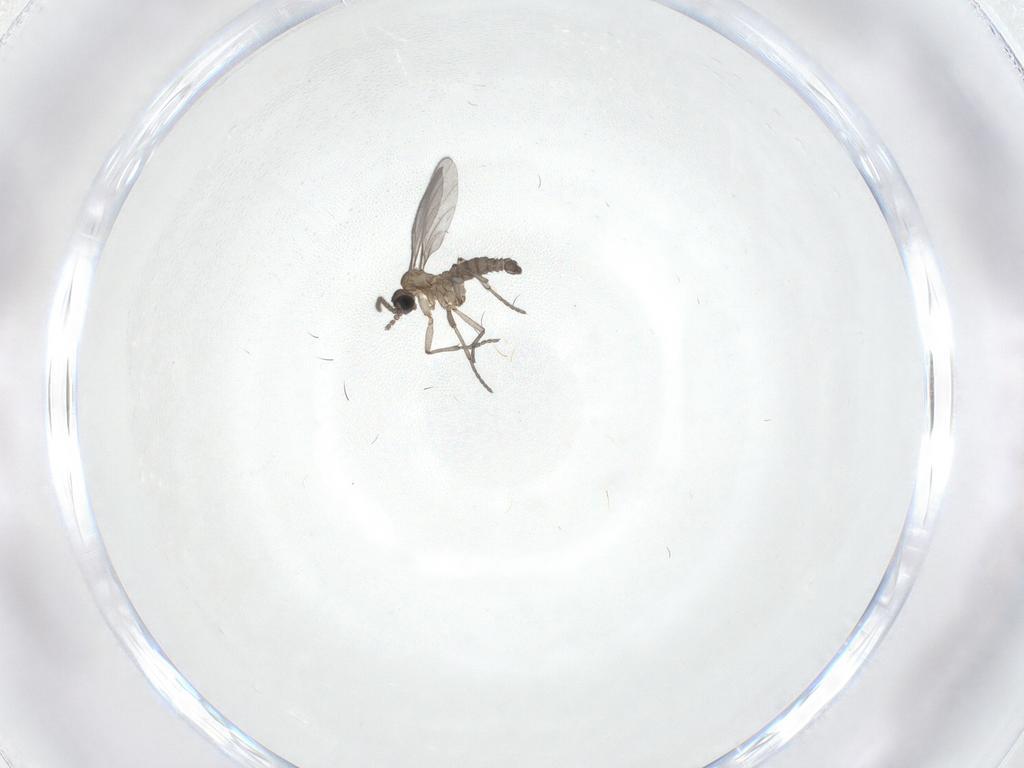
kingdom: Animalia
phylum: Arthropoda
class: Insecta
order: Diptera
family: Sciaridae
